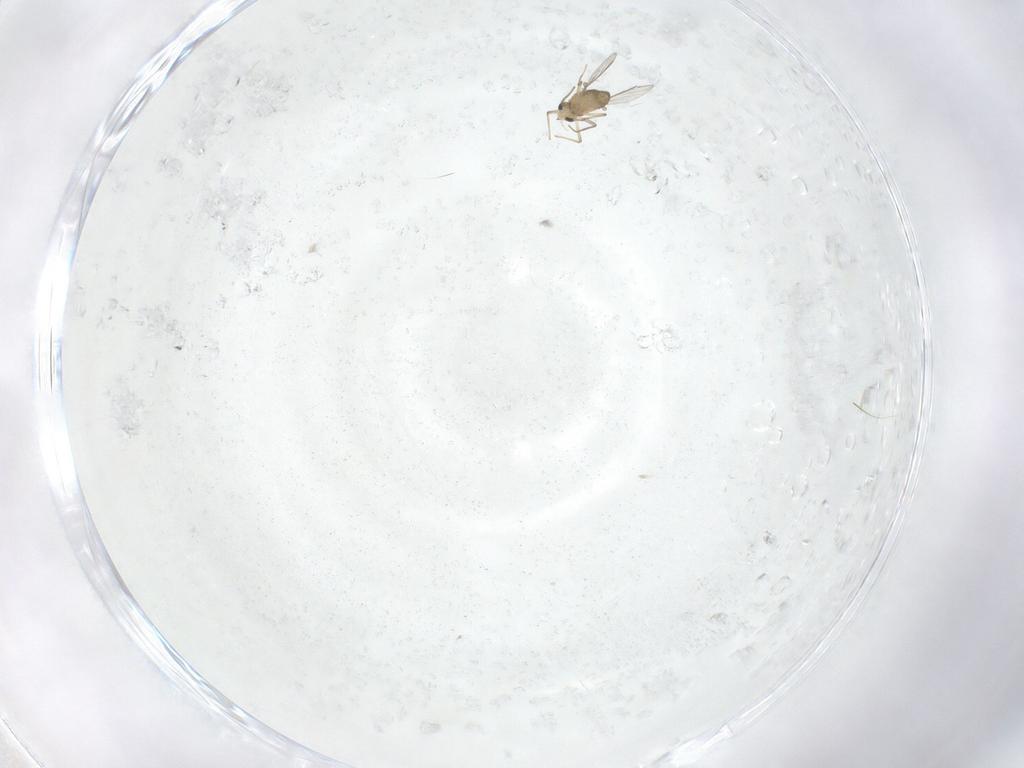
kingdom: Animalia
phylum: Arthropoda
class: Insecta
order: Diptera
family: Chironomidae
